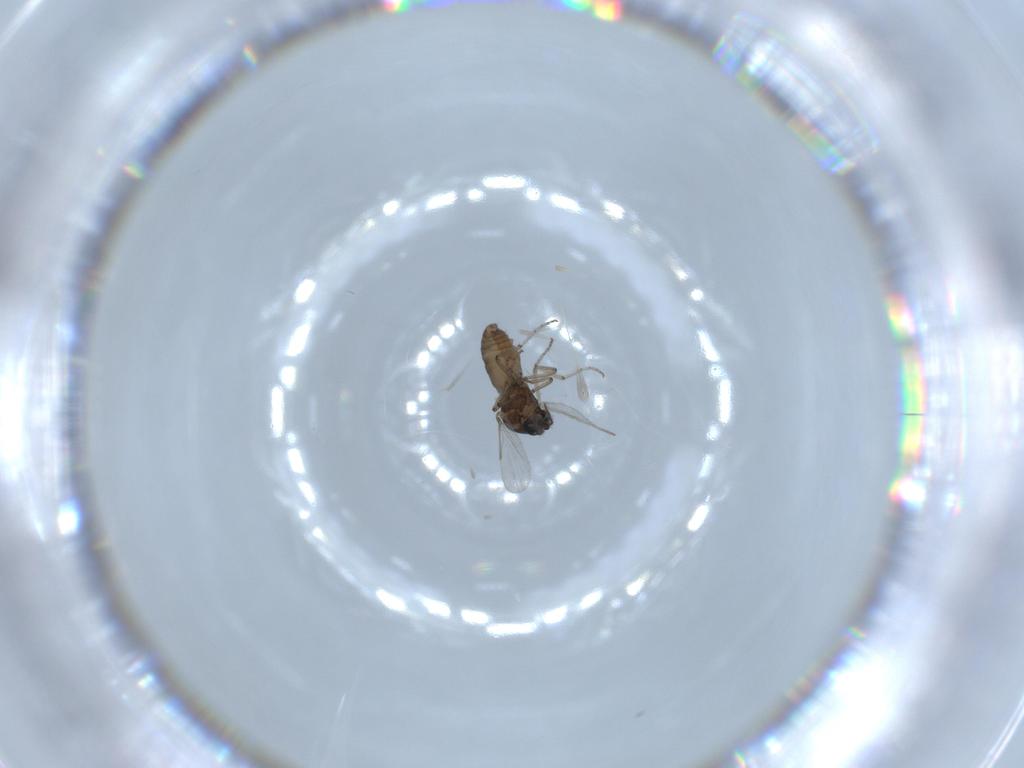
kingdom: Animalia
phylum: Arthropoda
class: Insecta
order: Diptera
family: Ceratopogonidae
